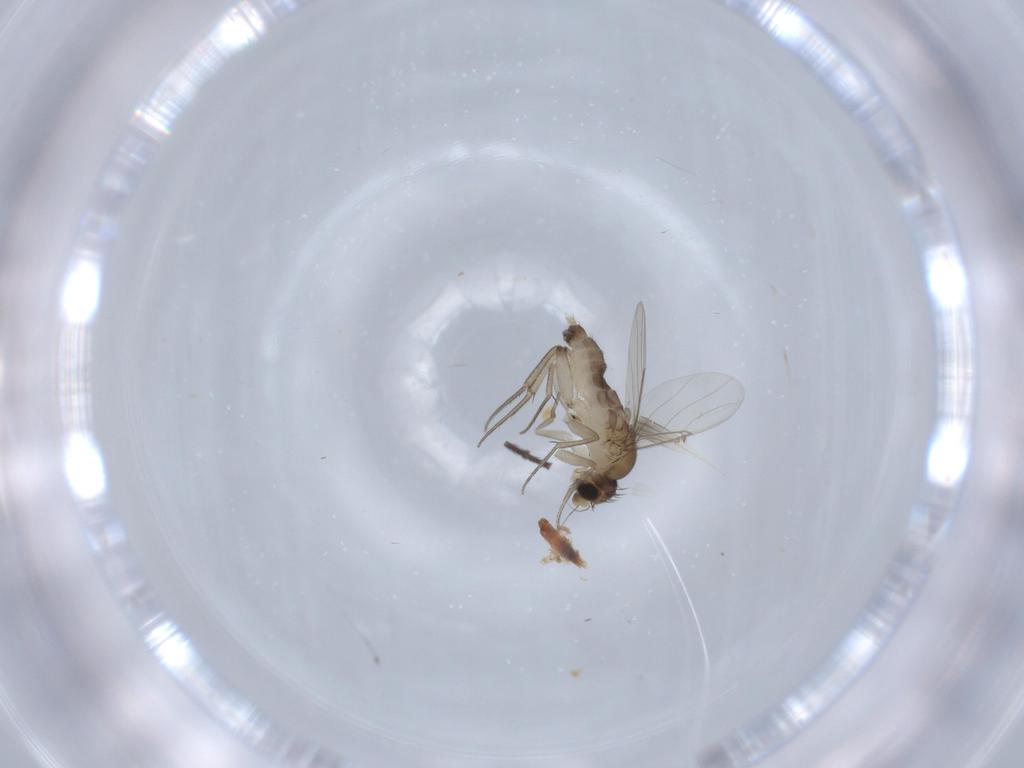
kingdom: Animalia
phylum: Arthropoda
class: Insecta
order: Diptera
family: Phoridae
